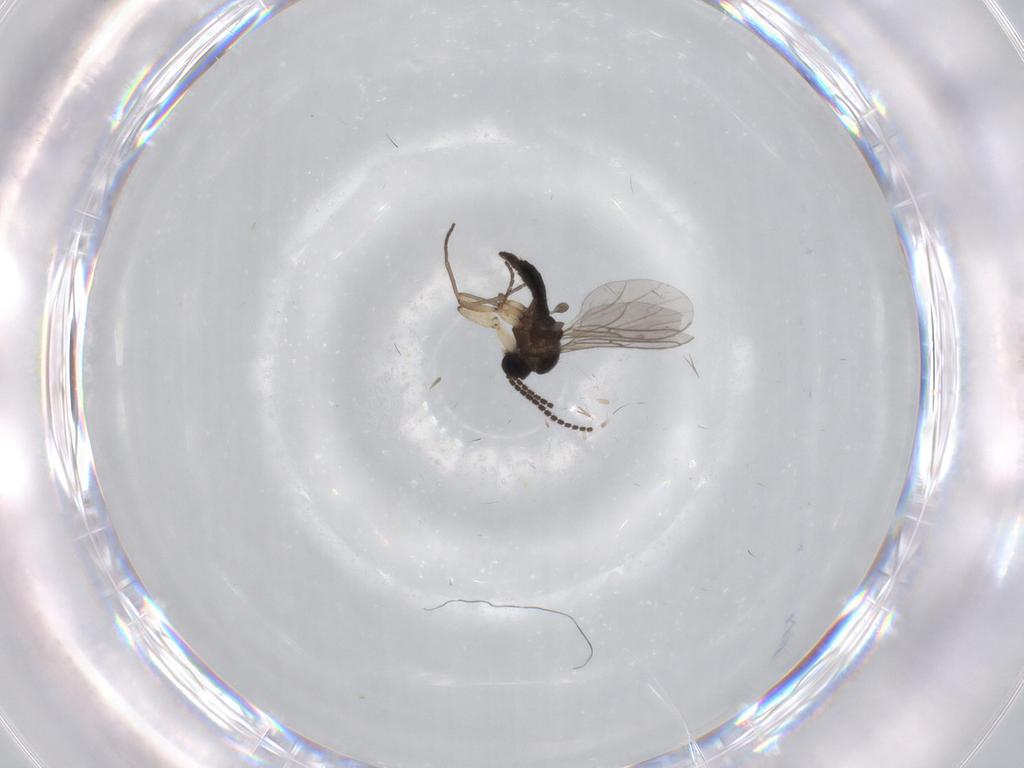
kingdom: Animalia
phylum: Arthropoda
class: Insecta
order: Diptera
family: Sciaridae
